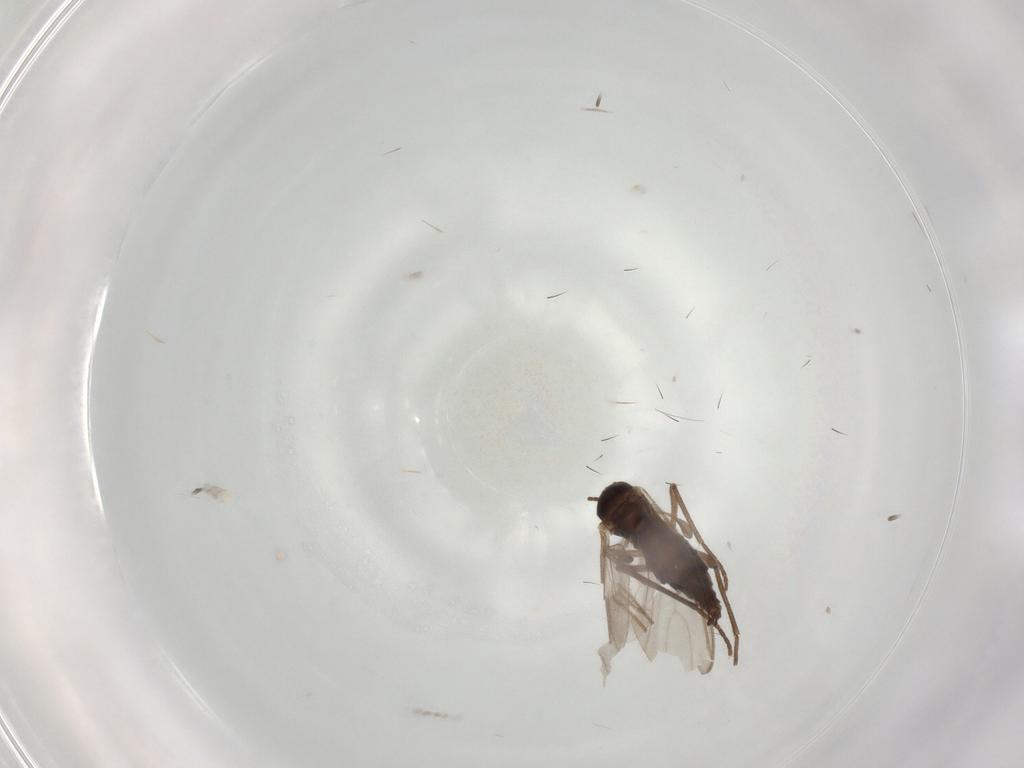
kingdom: Animalia
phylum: Arthropoda
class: Insecta
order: Diptera
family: Sciaridae
